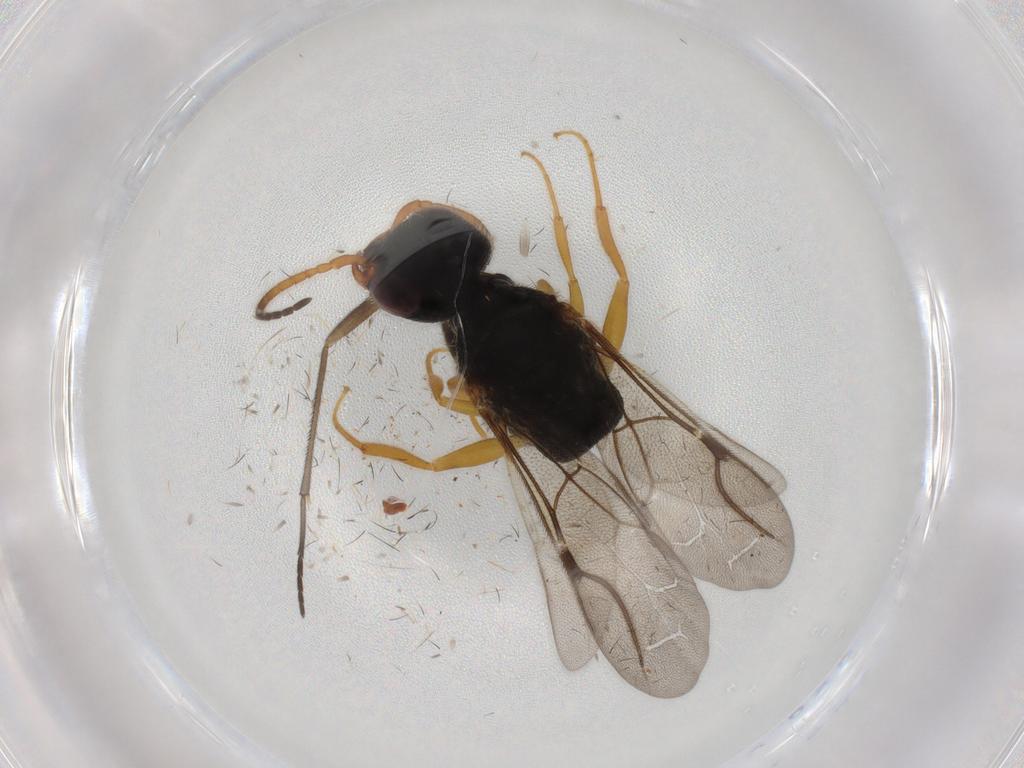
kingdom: Animalia
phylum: Arthropoda
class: Insecta
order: Hymenoptera
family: Bethylidae
